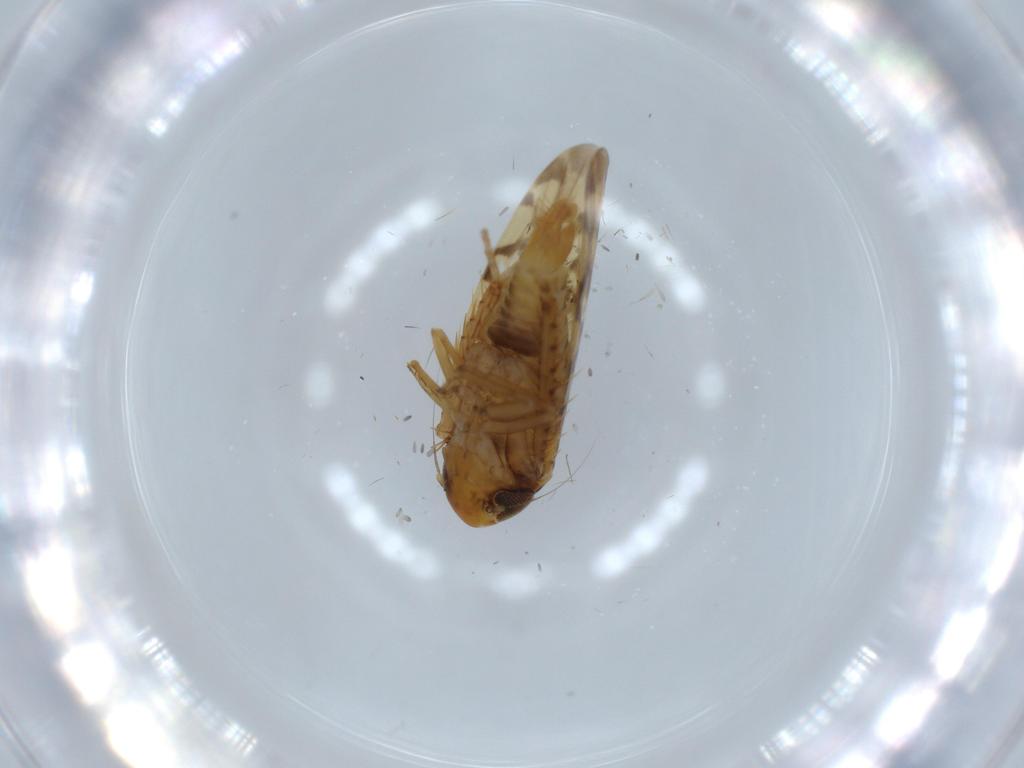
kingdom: Animalia
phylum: Arthropoda
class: Insecta
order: Hemiptera
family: Cicadellidae
